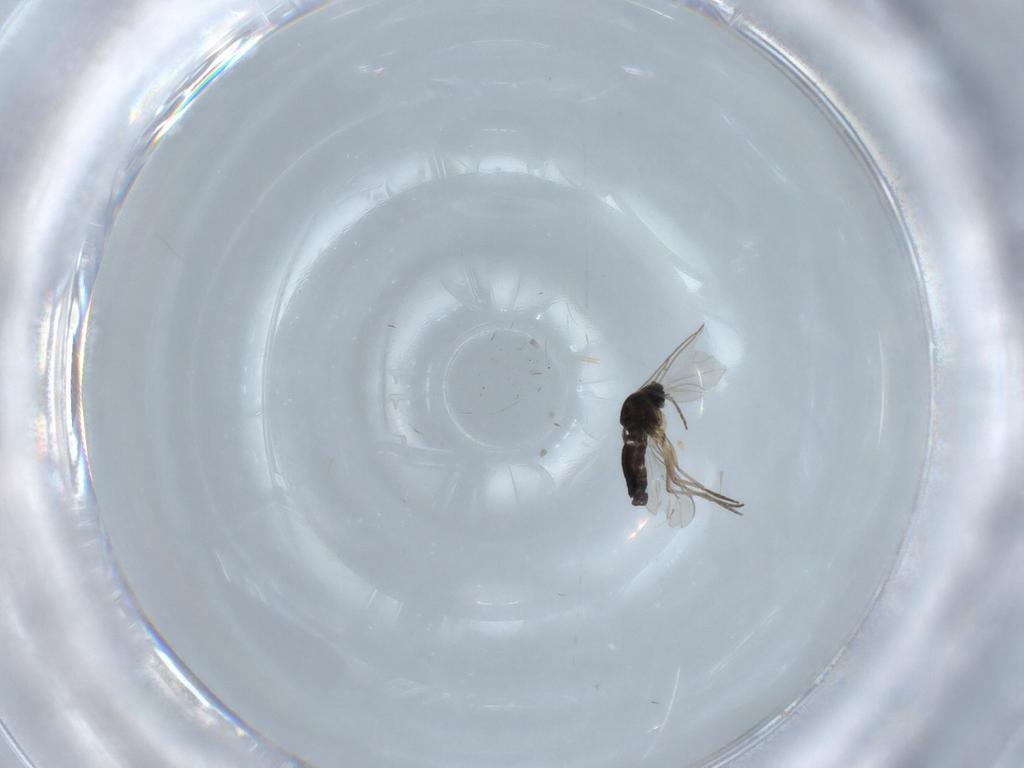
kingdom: Animalia
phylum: Arthropoda
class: Insecta
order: Diptera
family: Sciaridae
